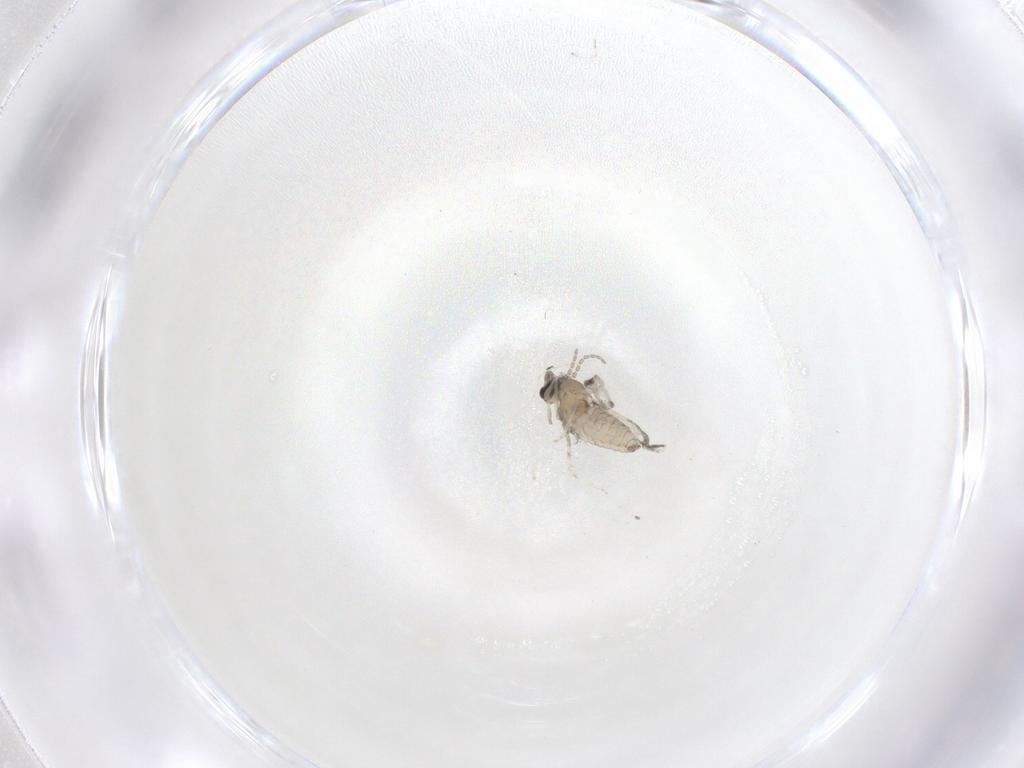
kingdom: Animalia
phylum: Arthropoda
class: Insecta
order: Diptera
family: Cecidomyiidae
